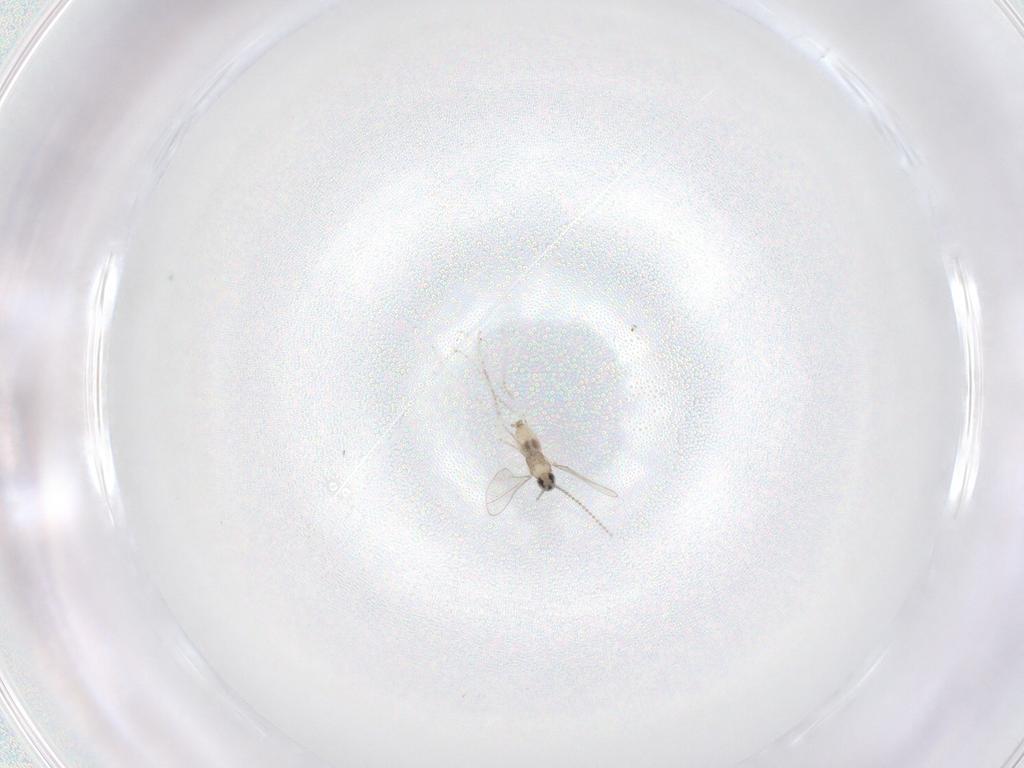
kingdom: Animalia
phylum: Arthropoda
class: Insecta
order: Diptera
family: Cecidomyiidae
